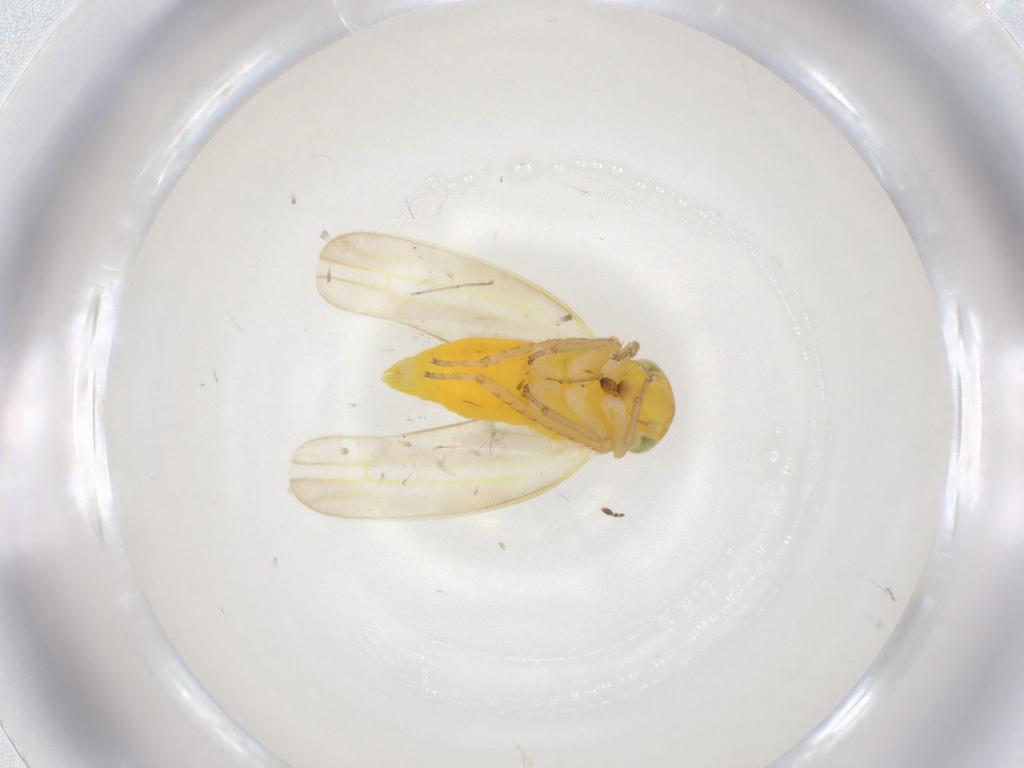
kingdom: Animalia
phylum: Arthropoda
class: Insecta
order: Hemiptera
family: Cicadellidae
